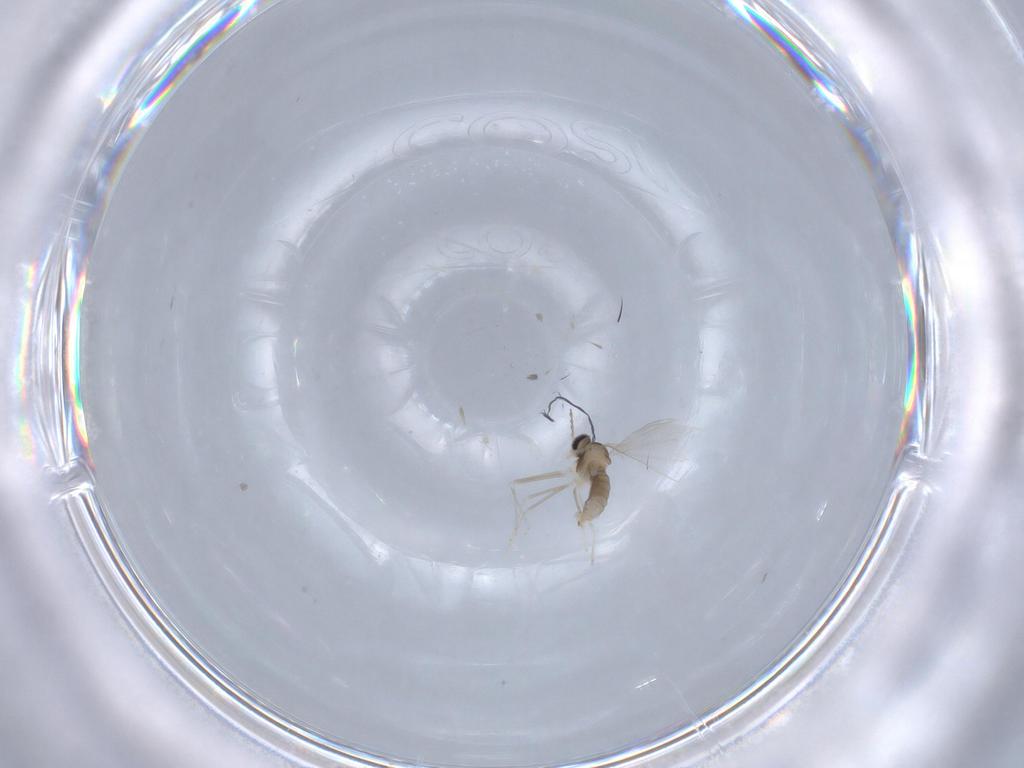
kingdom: Animalia
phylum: Arthropoda
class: Insecta
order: Diptera
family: Cecidomyiidae
